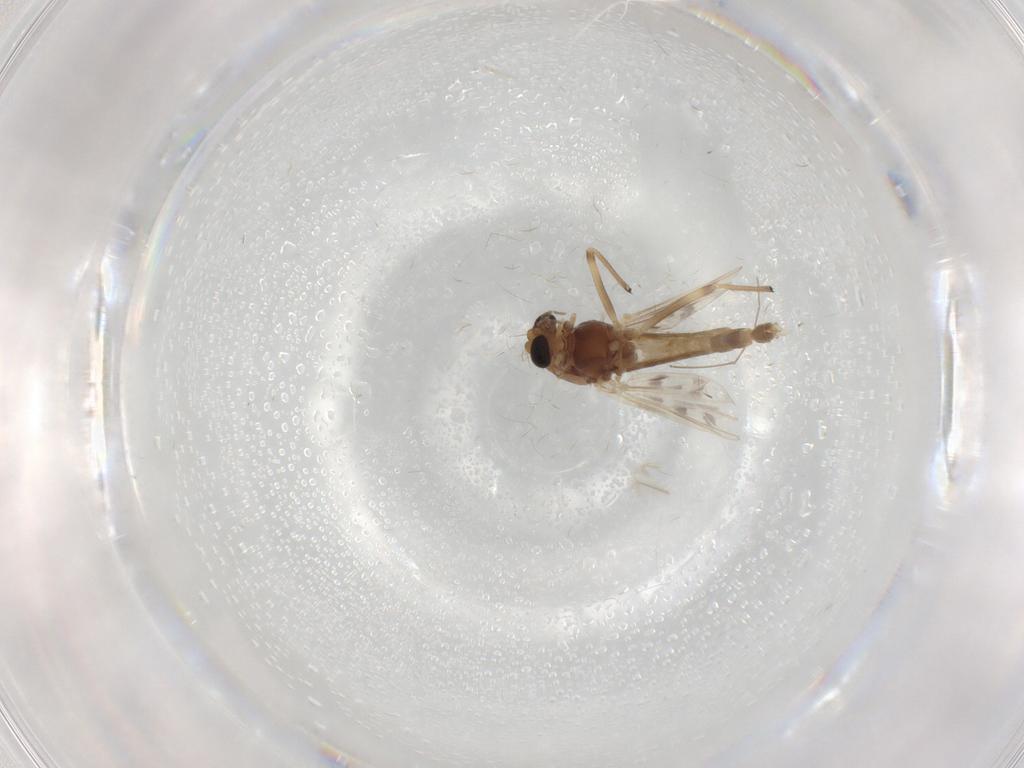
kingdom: Animalia
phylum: Arthropoda
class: Insecta
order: Diptera
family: Chironomidae
